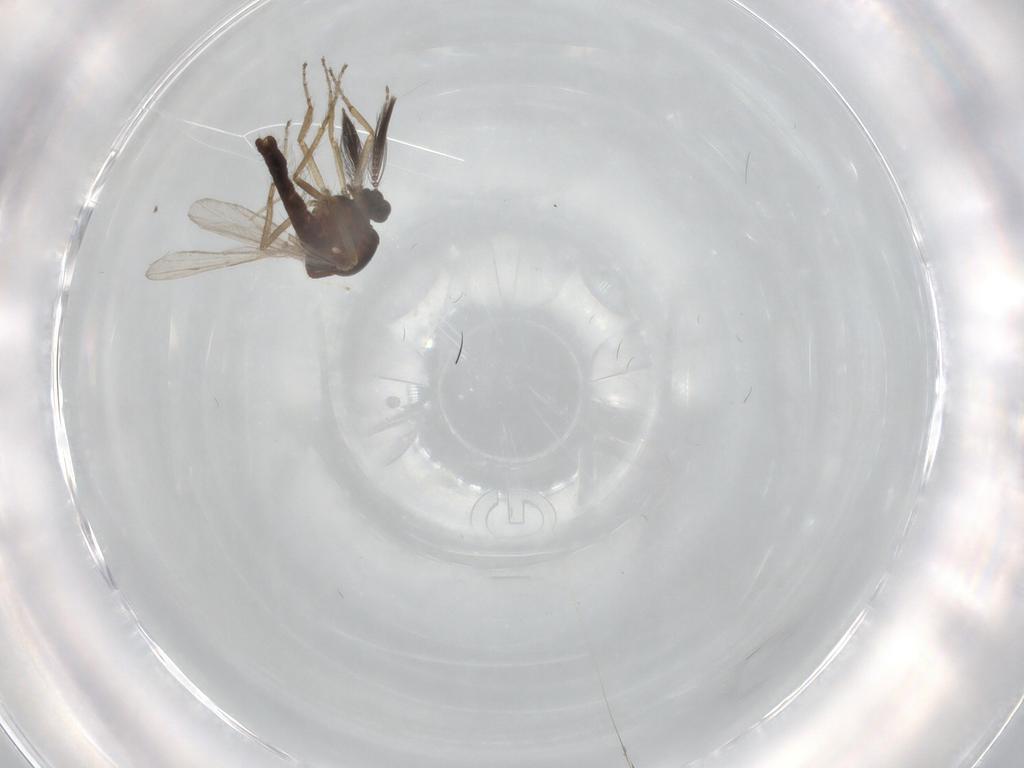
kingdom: Animalia
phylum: Arthropoda
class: Insecta
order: Diptera
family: Ceratopogonidae
